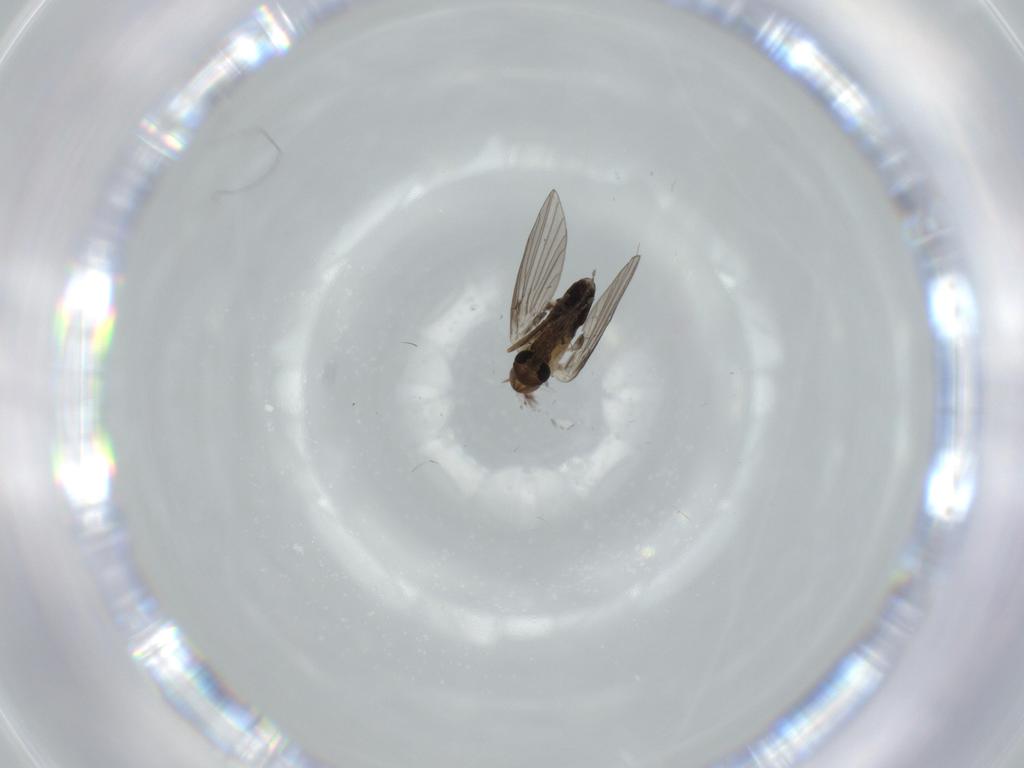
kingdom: Animalia
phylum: Arthropoda
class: Insecta
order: Diptera
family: Psychodidae
